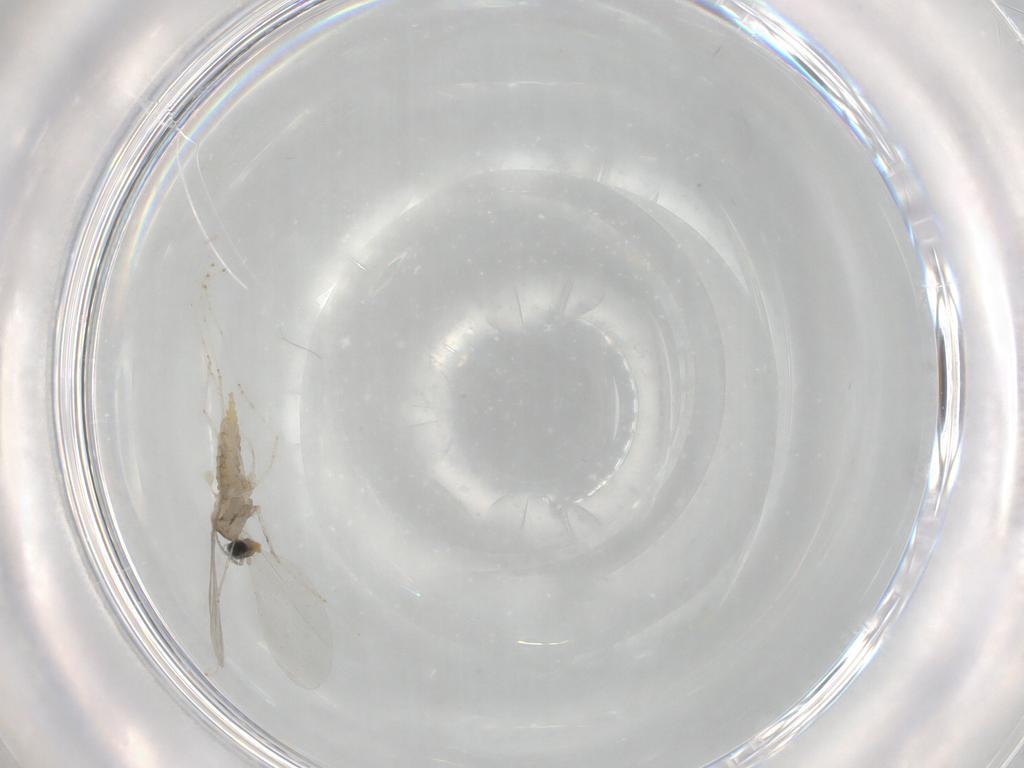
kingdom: Animalia
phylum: Arthropoda
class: Insecta
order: Diptera
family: Cecidomyiidae
